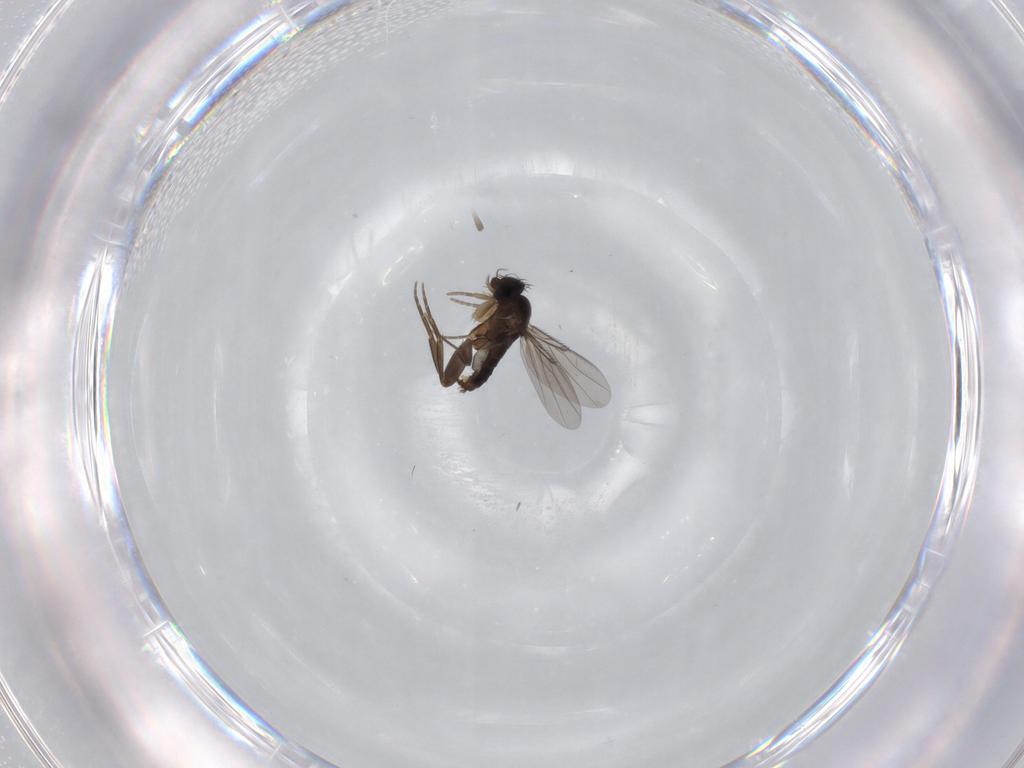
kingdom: Animalia
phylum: Arthropoda
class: Insecta
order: Diptera
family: Phoridae
